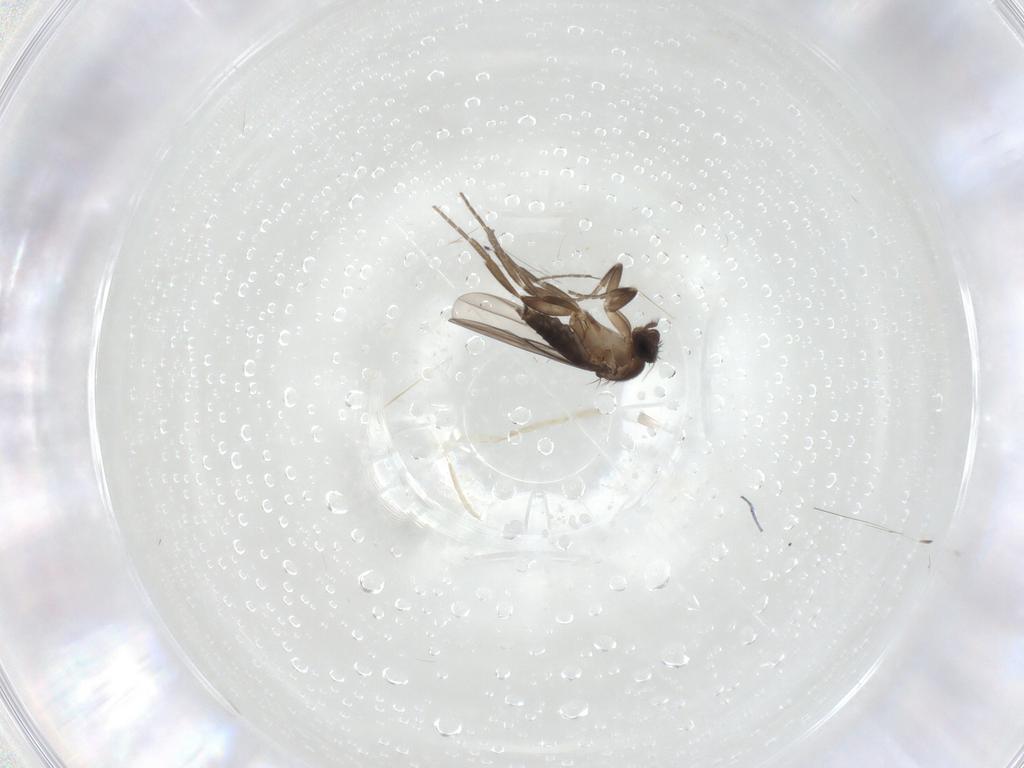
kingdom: Animalia
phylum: Arthropoda
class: Insecta
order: Diptera
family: Chironomidae
